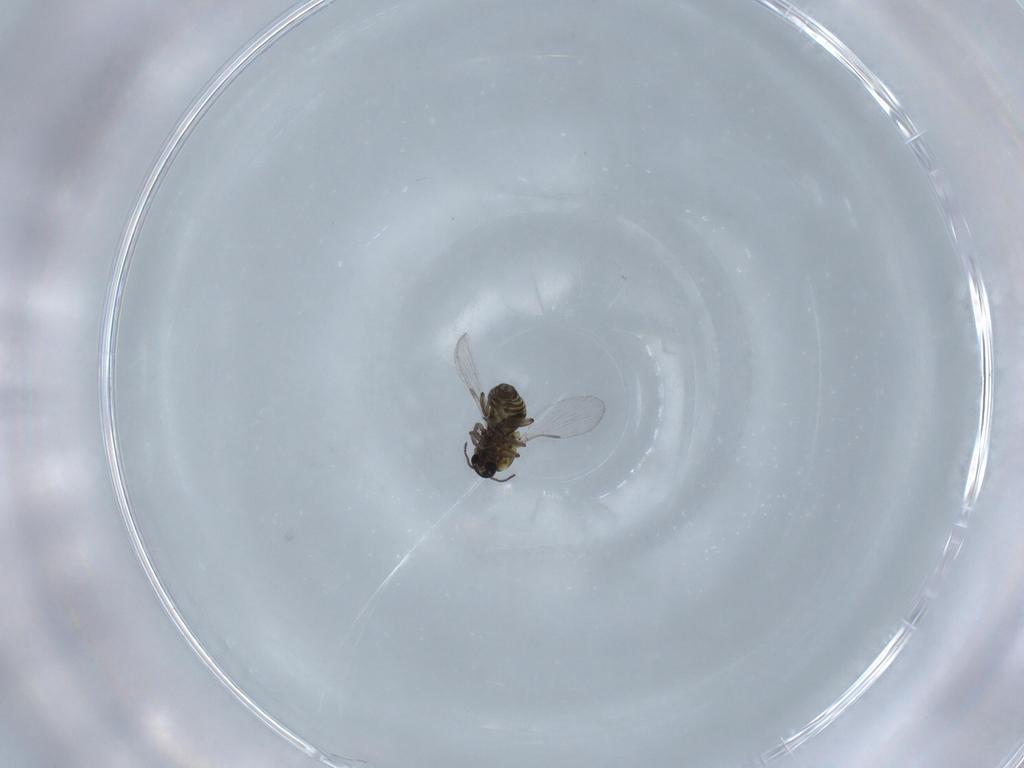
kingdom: Animalia
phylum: Arthropoda
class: Insecta
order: Diptera
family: Ceratopogonidae
